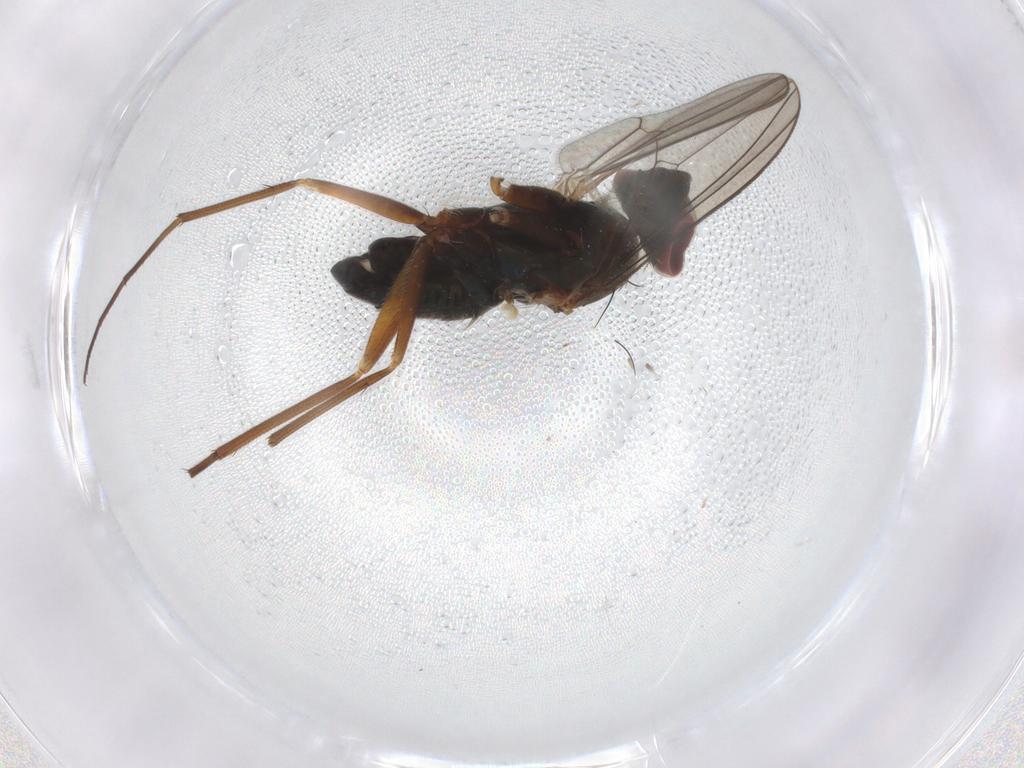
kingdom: Animalia
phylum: Arthropoda
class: Insecta
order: Diptera
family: Dolichopodidae
